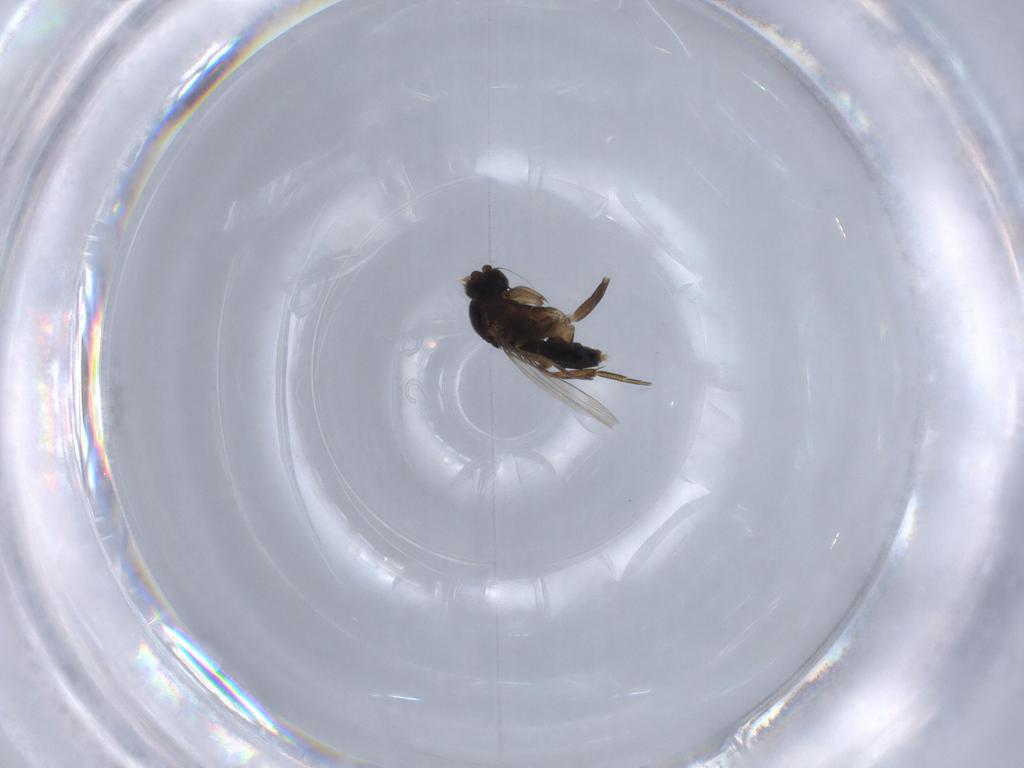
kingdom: Animalia
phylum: Arthropoda
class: Insecta
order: Diptera
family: Phoridae
